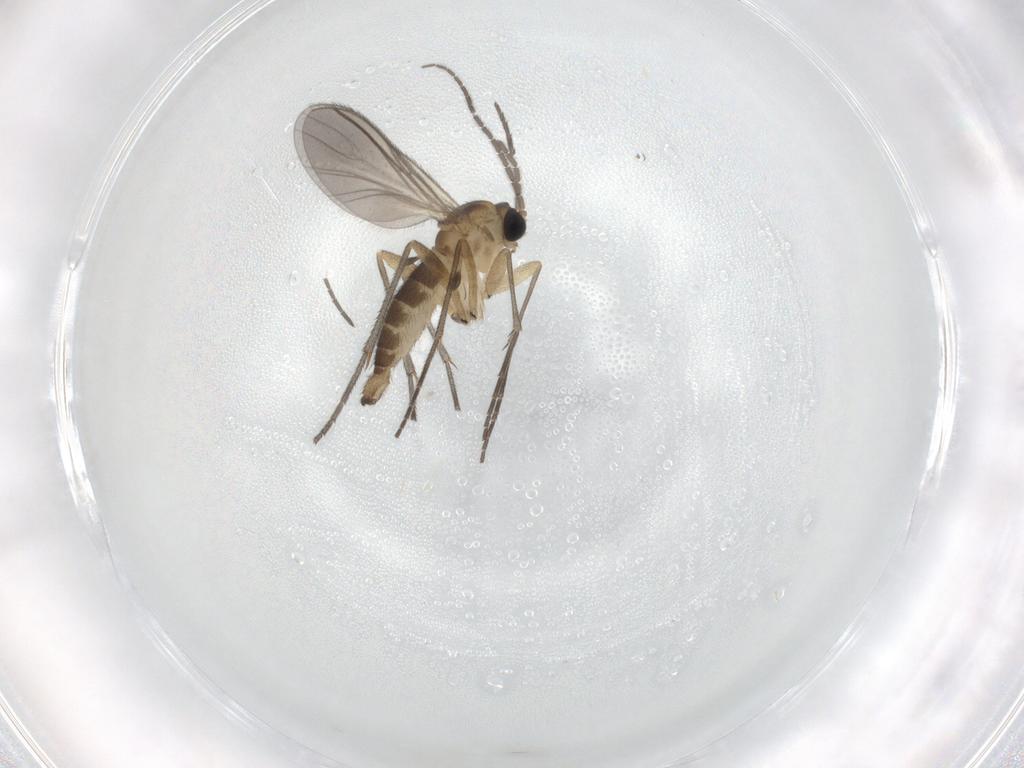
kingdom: Animalia
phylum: Arthropoda
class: Insecta
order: Diptera
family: Sciaridae
